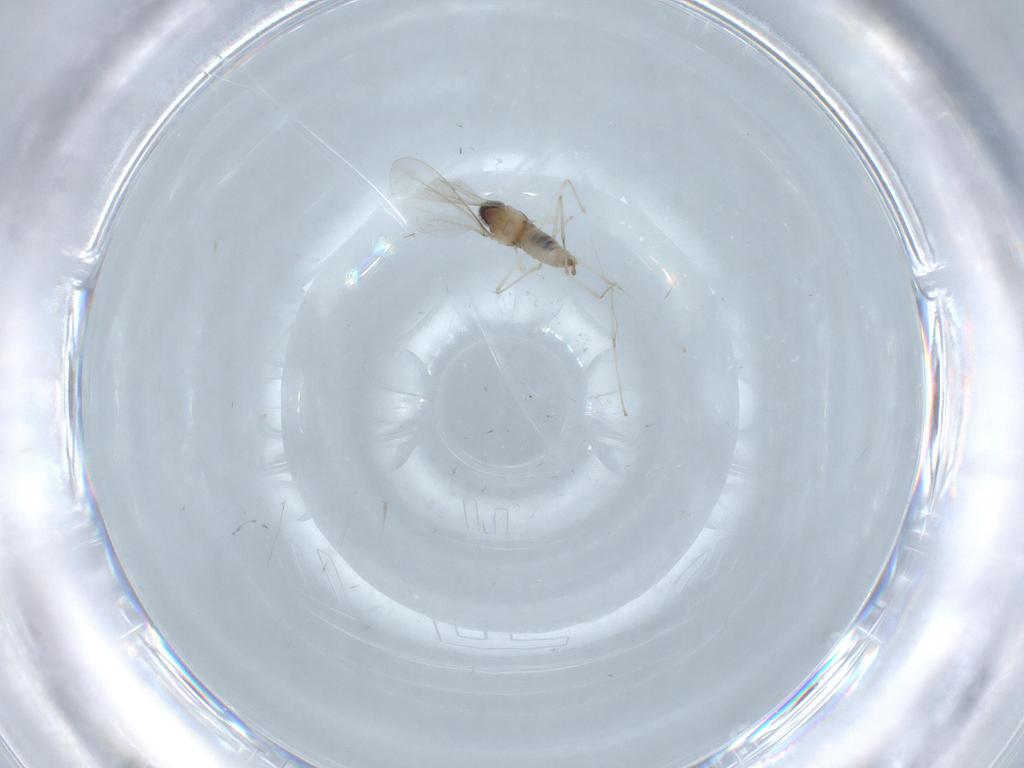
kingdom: Animalia
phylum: Arthropoda
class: Insecta
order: Diptera
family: Cecidomyiidae
